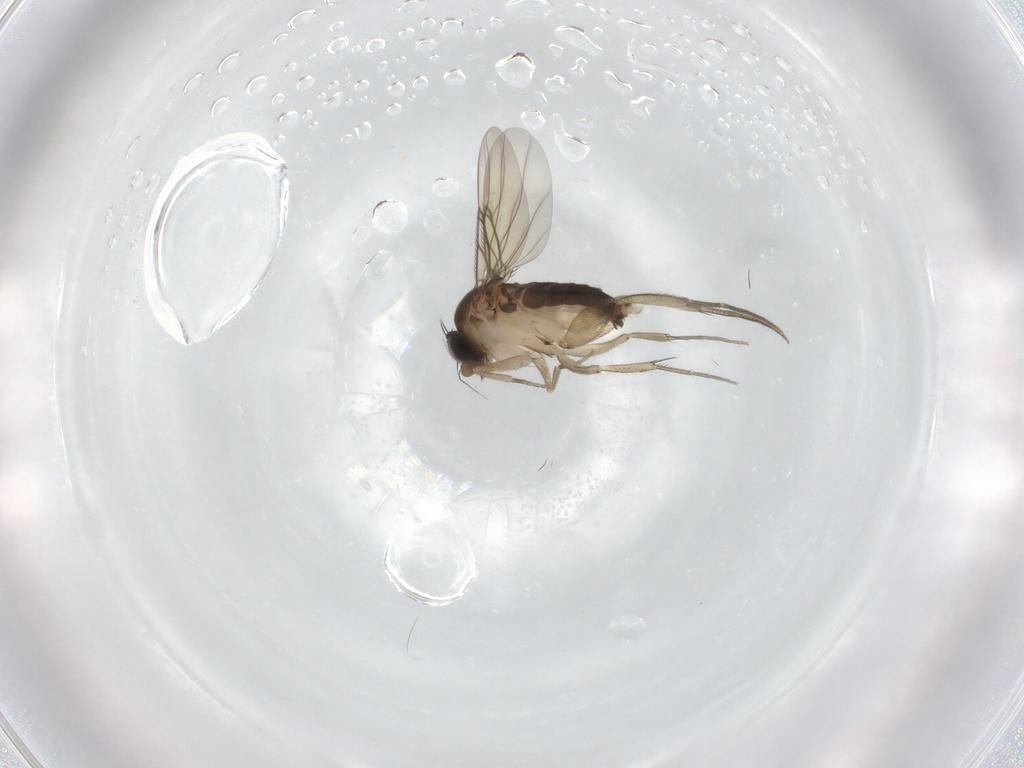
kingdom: Animalia
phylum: Arthropoda
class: Insecta
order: Diptera
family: Phoridae
